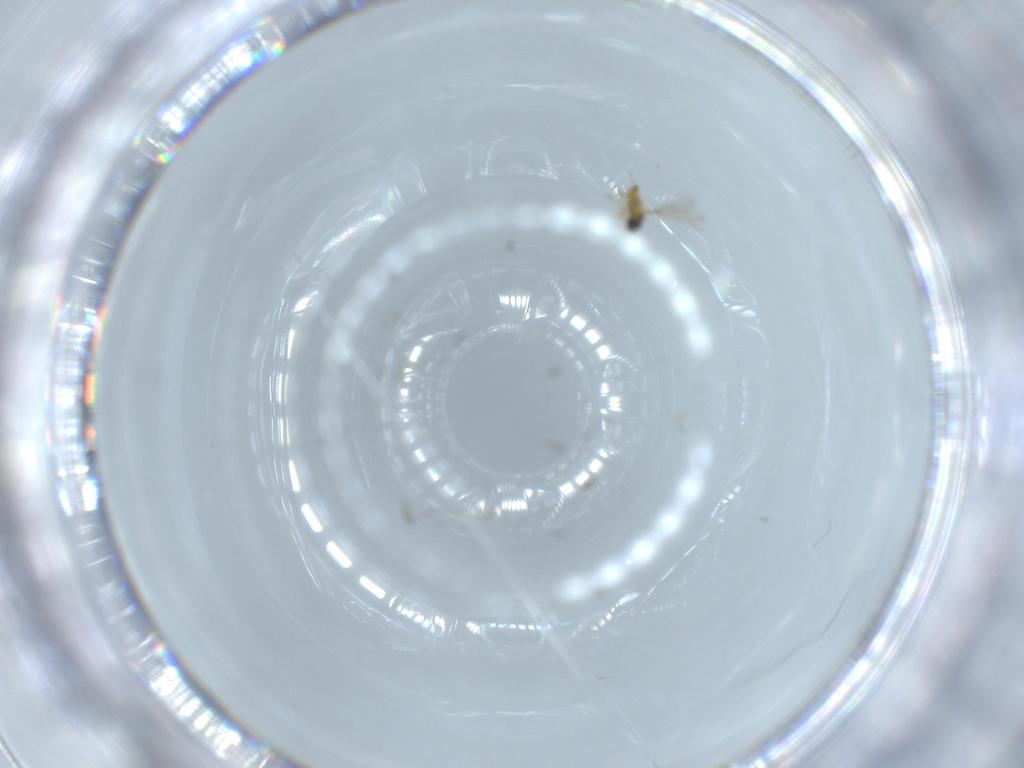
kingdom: Animalia
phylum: Arthropoda
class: Insecta
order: Hymenoptera
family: Mymaridae
